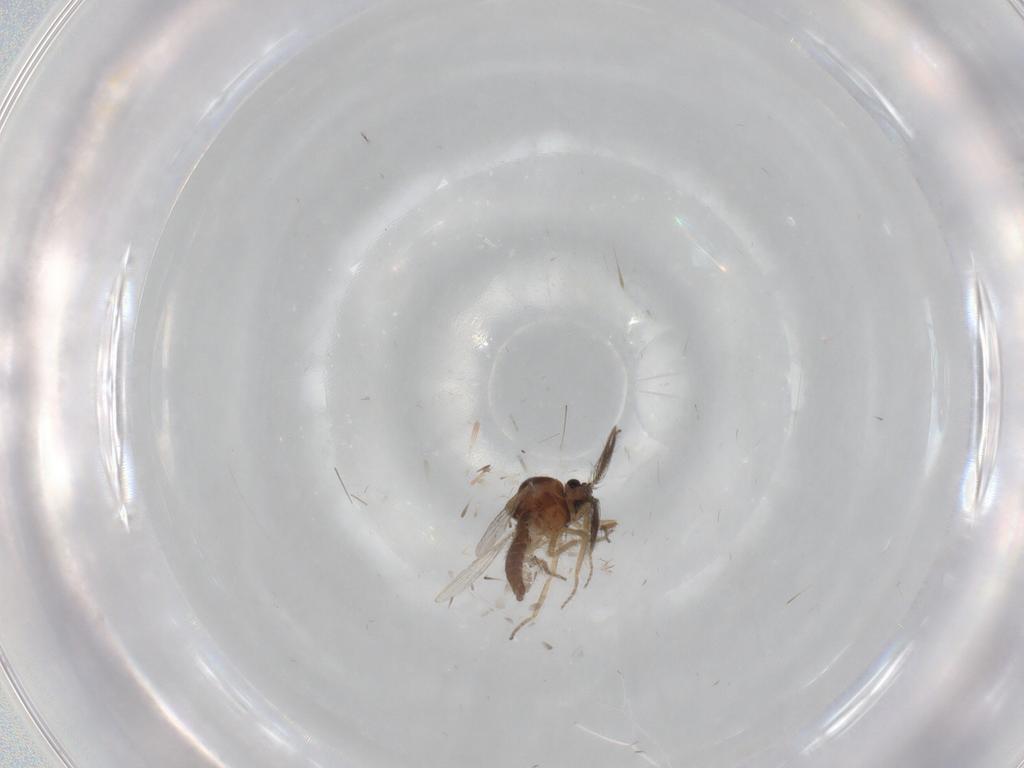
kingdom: Animalia
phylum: Arthropoda
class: Insecta
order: Diptera
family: Ceratopogonidae
